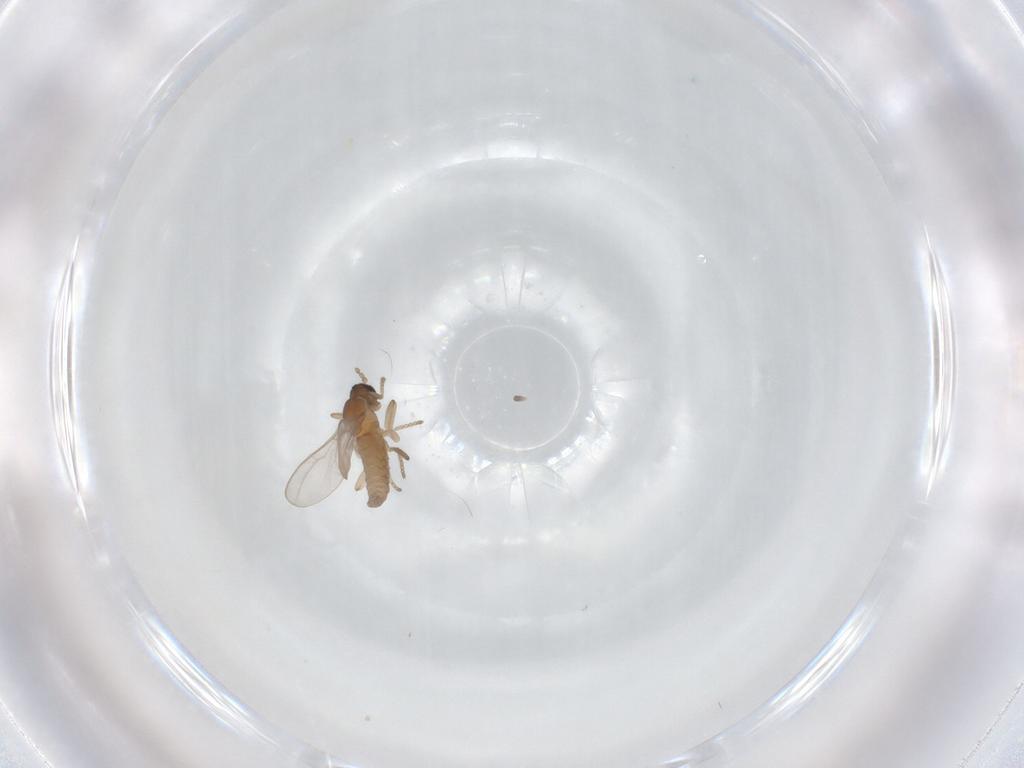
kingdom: Animalia
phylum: Arthropoda
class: Insecta
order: Diptera
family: Cecidomyiidae
